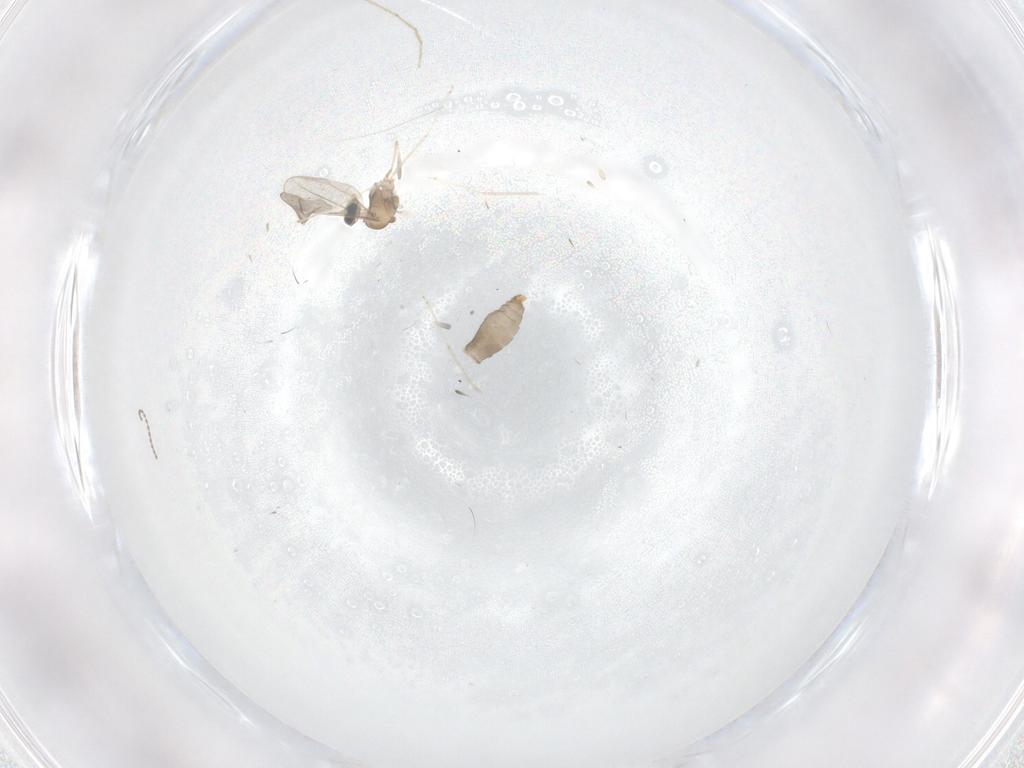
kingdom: Animalia
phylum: Arthropoda
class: Insecta
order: Diptera
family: Cecidomyiidae
